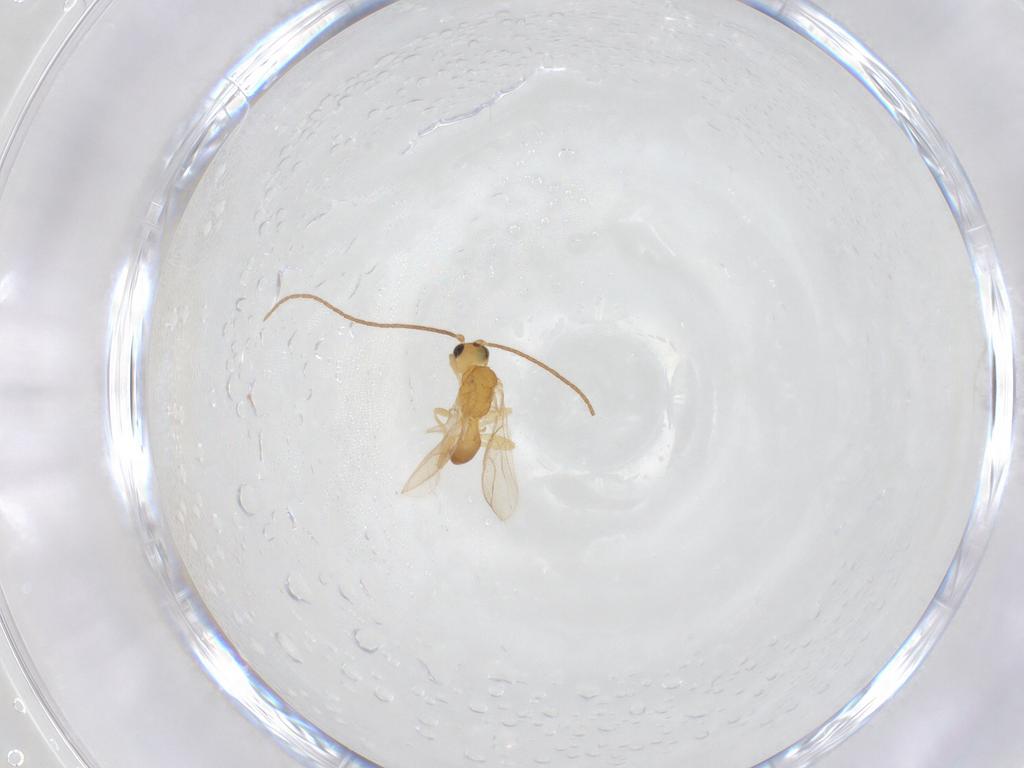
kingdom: Animalia
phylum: Arthropoda
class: Insecta
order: Hymenoptera
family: Braconidae
